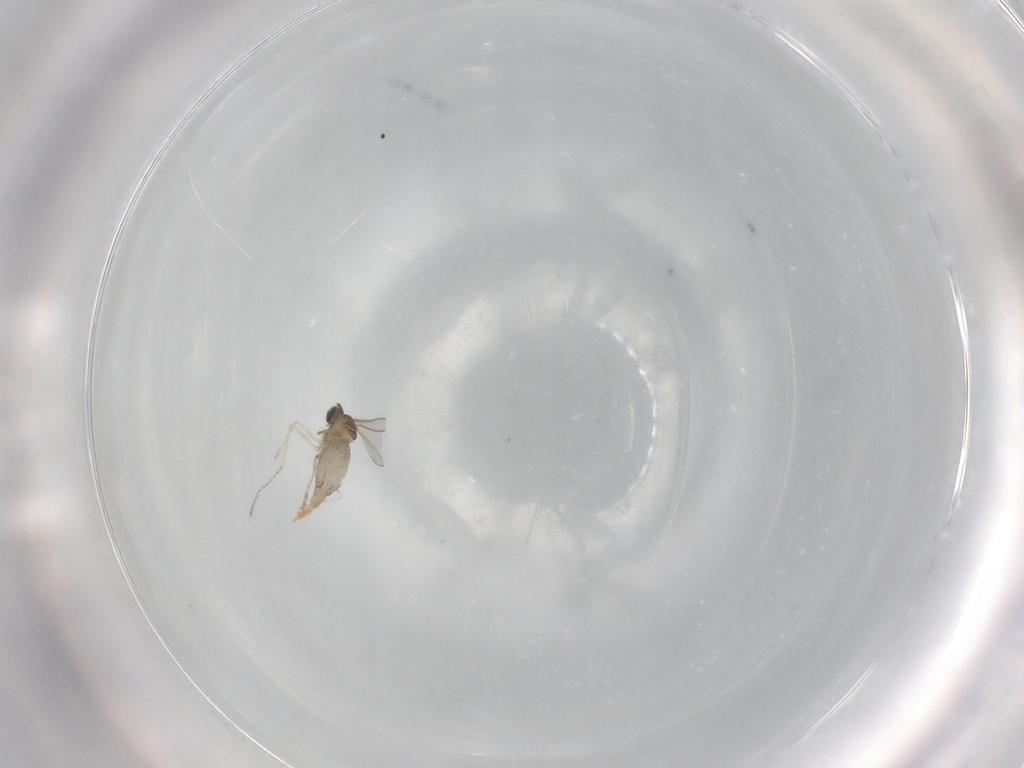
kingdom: Animalia
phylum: Arthropoda
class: Insecta
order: Diptera
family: Cecidomyiidae
